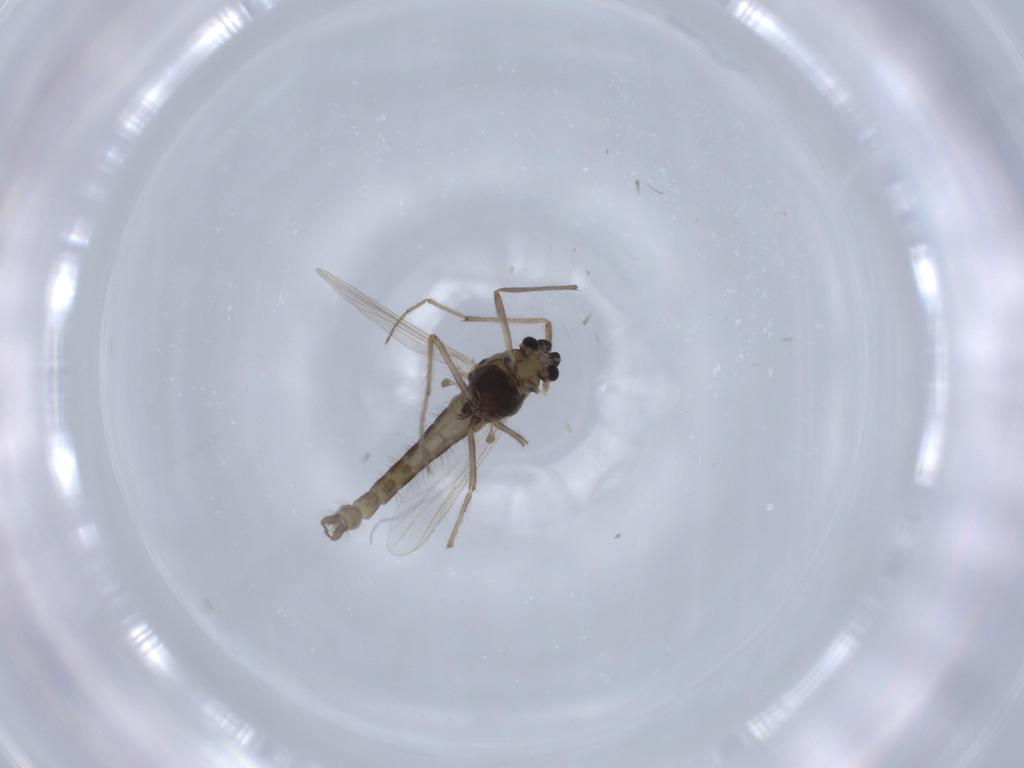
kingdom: Animalia
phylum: Arthropoda
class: Insecta
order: Diptera
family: Chironomidae
